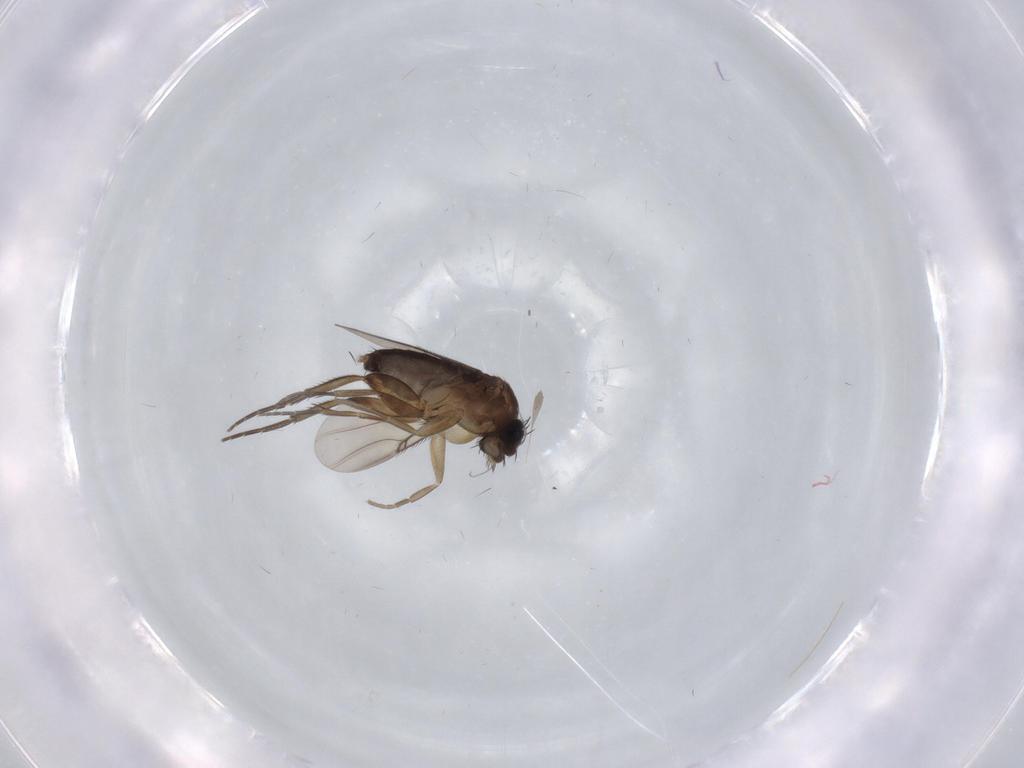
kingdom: Animalia
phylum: Arthropoda
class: Insecta
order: Diptera
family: Phoridae
